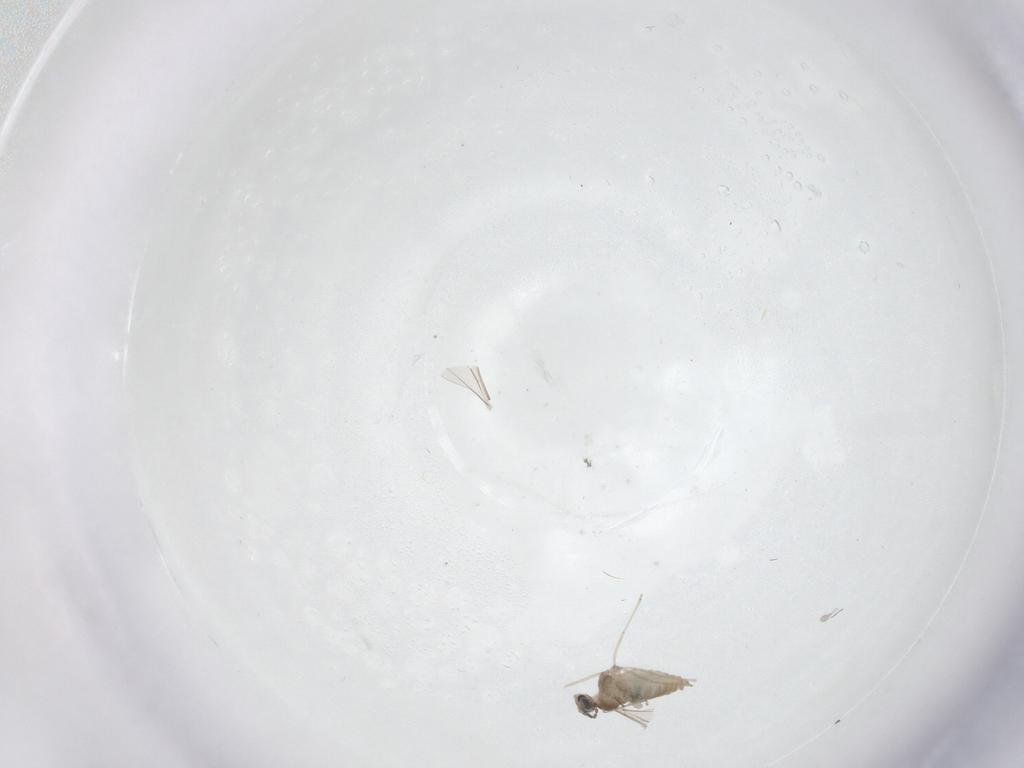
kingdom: Animalia
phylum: Arthropoda
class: Insecta
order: Diptera
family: Cecidomyiidae
